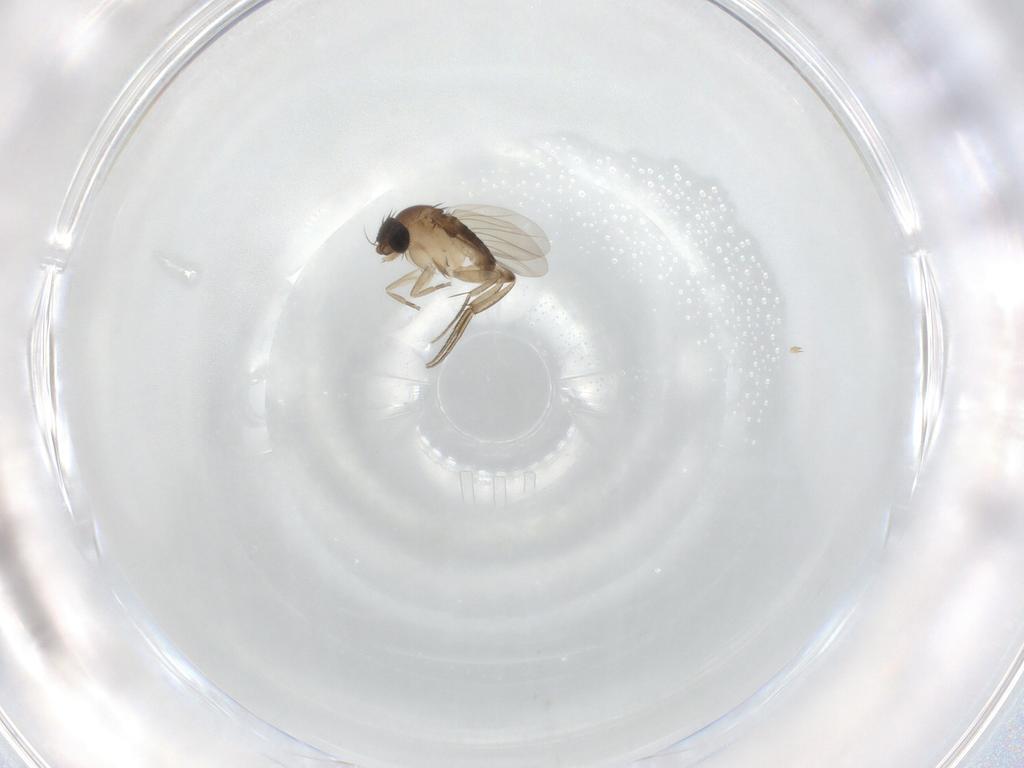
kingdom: Animalia
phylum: Arthropoda
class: Insecta
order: Diptera
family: Phoridae
